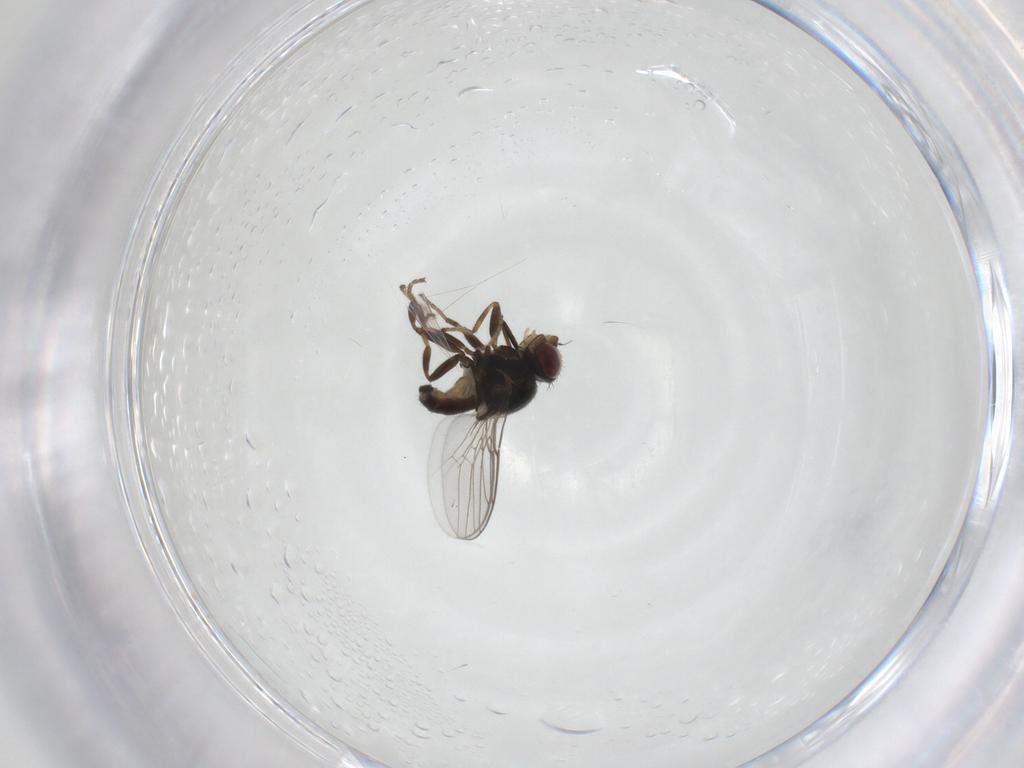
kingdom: Animalia
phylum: Arthropoda
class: Insecta
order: Diptera
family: Chloropidae
